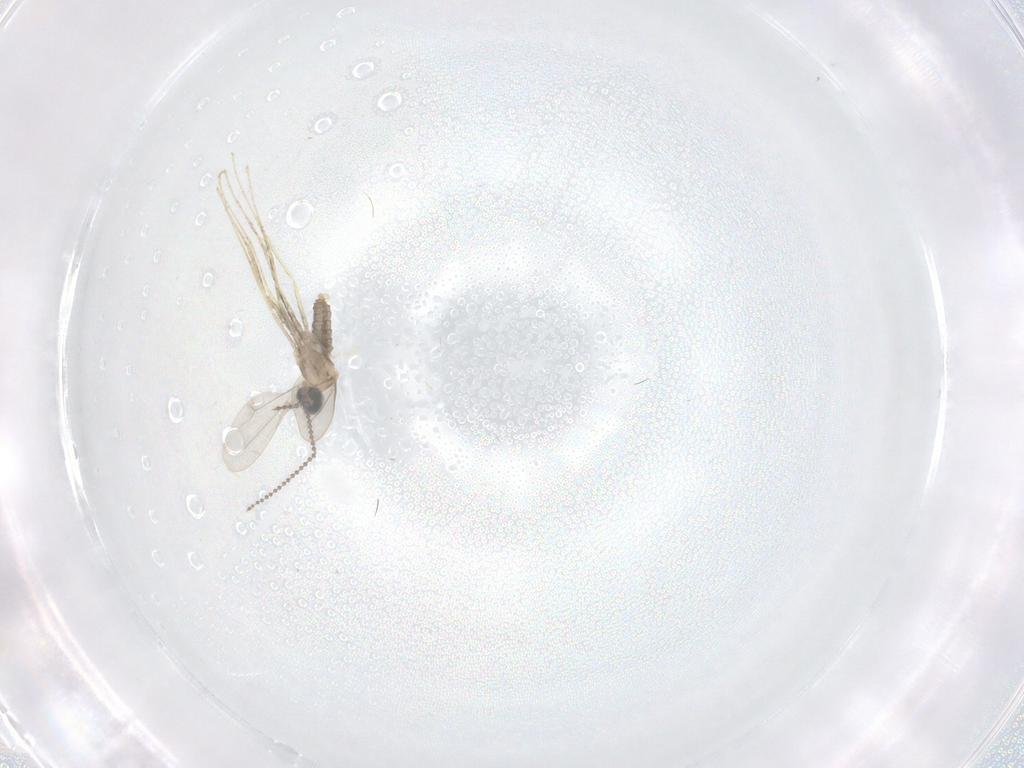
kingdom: Animalia
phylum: Arthropoda
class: Insecta
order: Diptera
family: Cecidomyiidae
